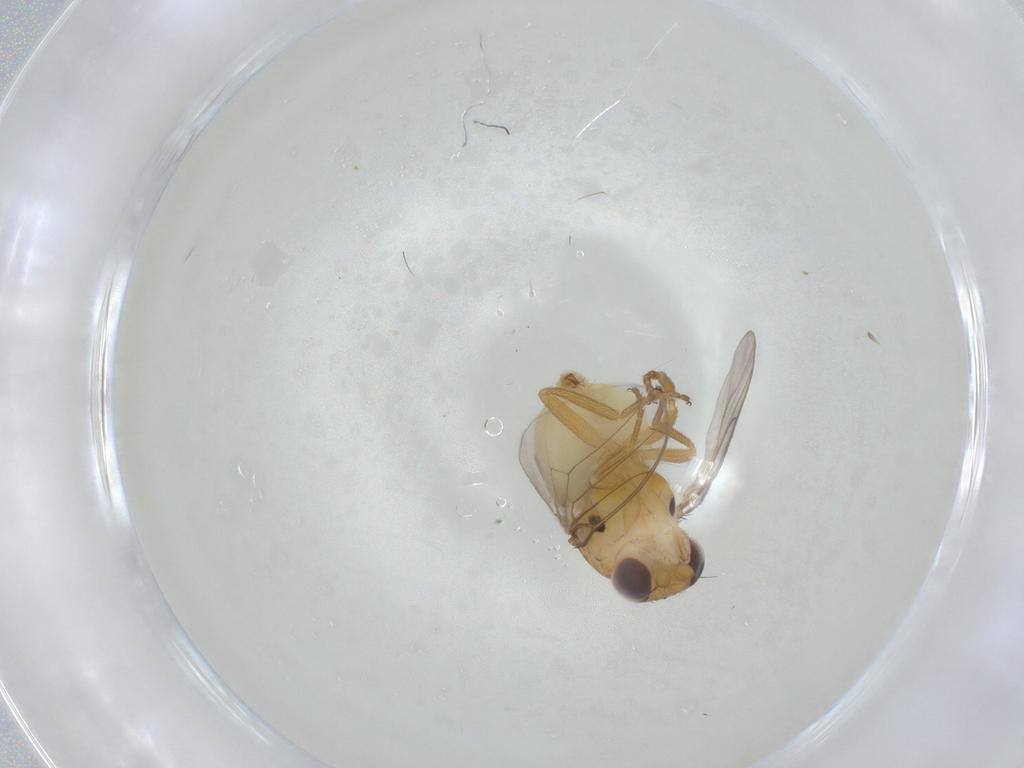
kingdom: Animalia
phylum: Arthropoda
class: Insecta
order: Diptera
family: Chloropidae
